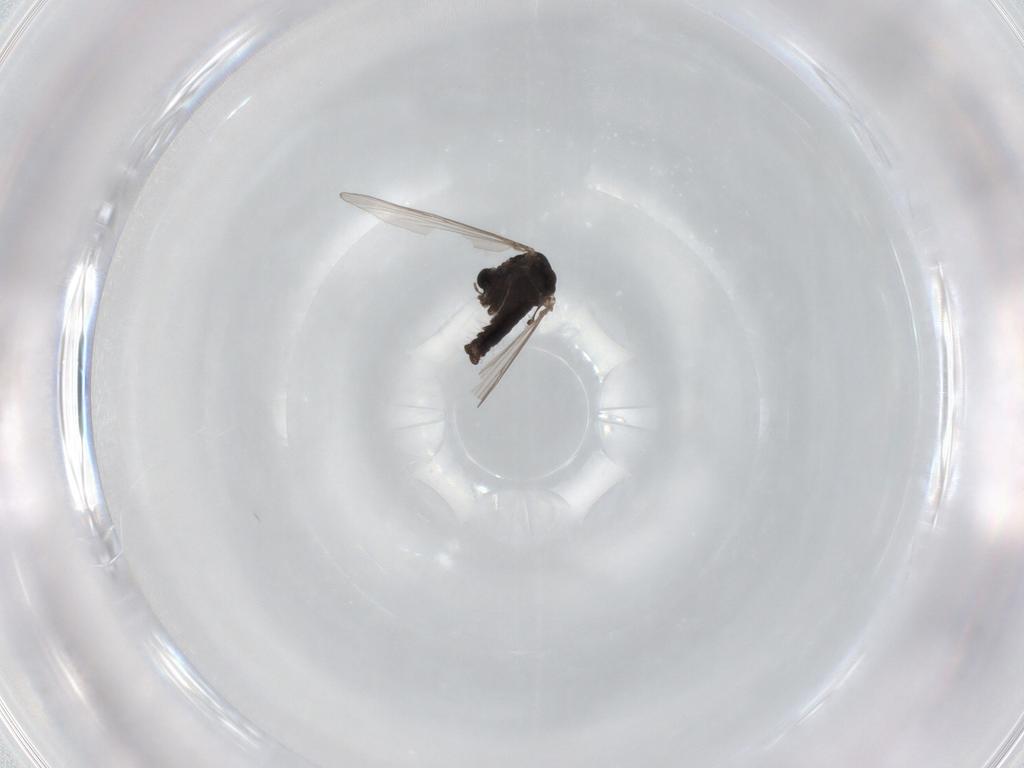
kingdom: Animalia
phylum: Arthropoda
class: Insecta
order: Diptera
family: Chironomidae
